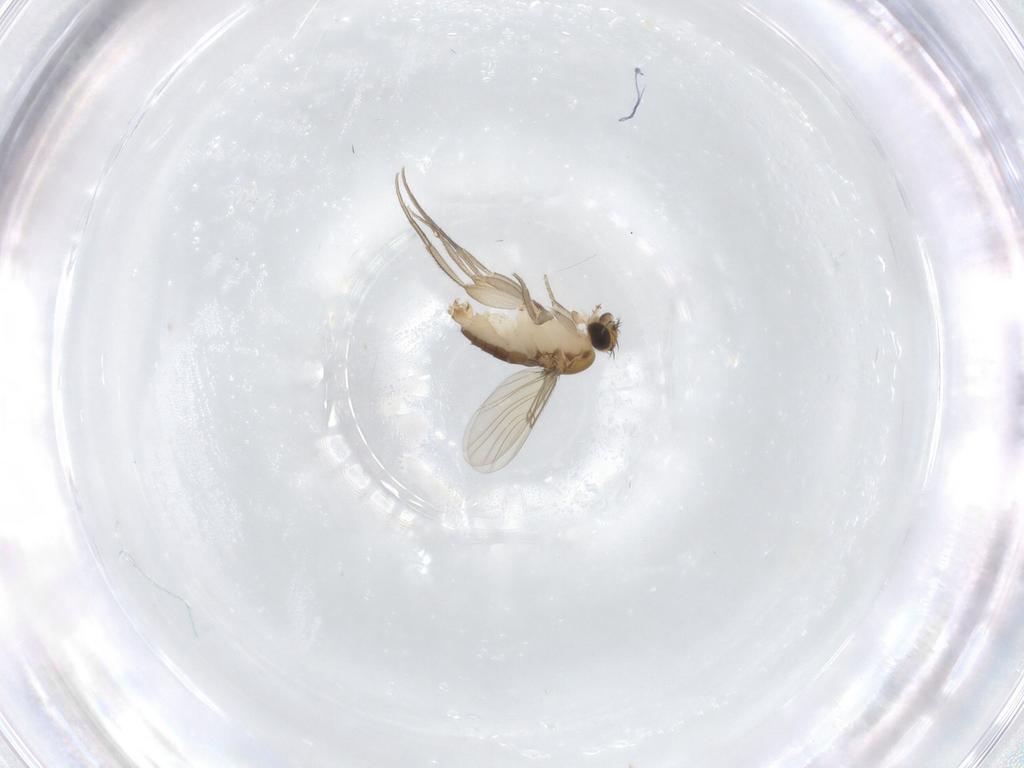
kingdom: Animalia
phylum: Arthropoda
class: Insecta
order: Diptera
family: Phoridae
